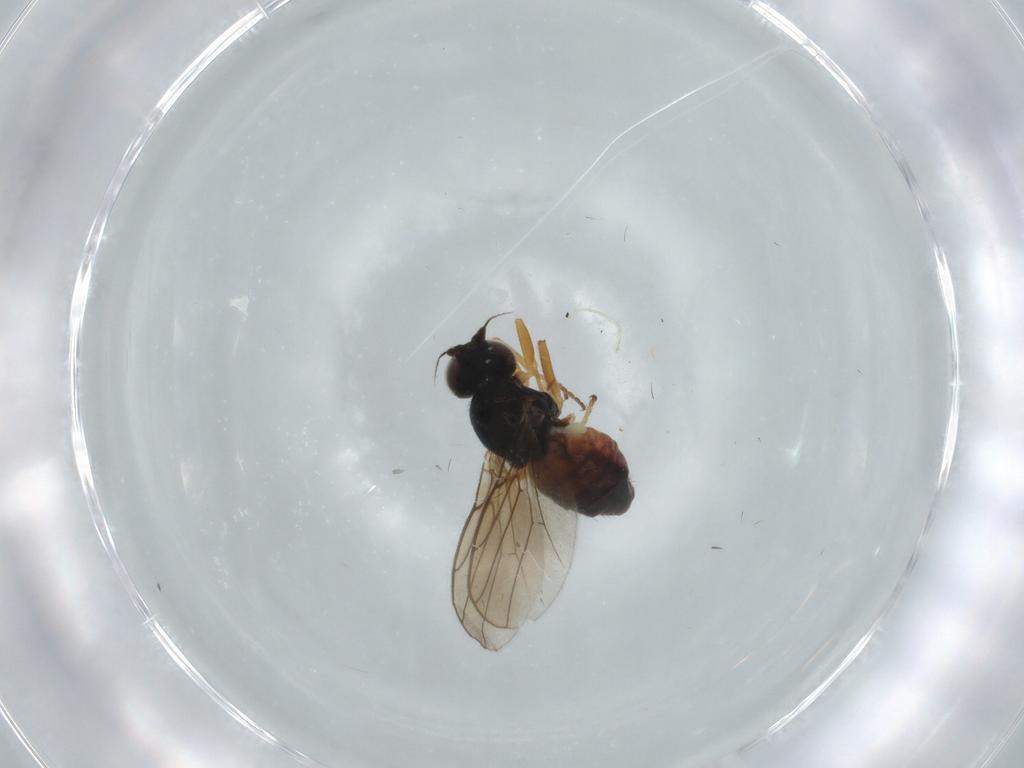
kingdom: Animalia
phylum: Arthropoda
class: Insecta
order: Diptera
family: Chloropidae
